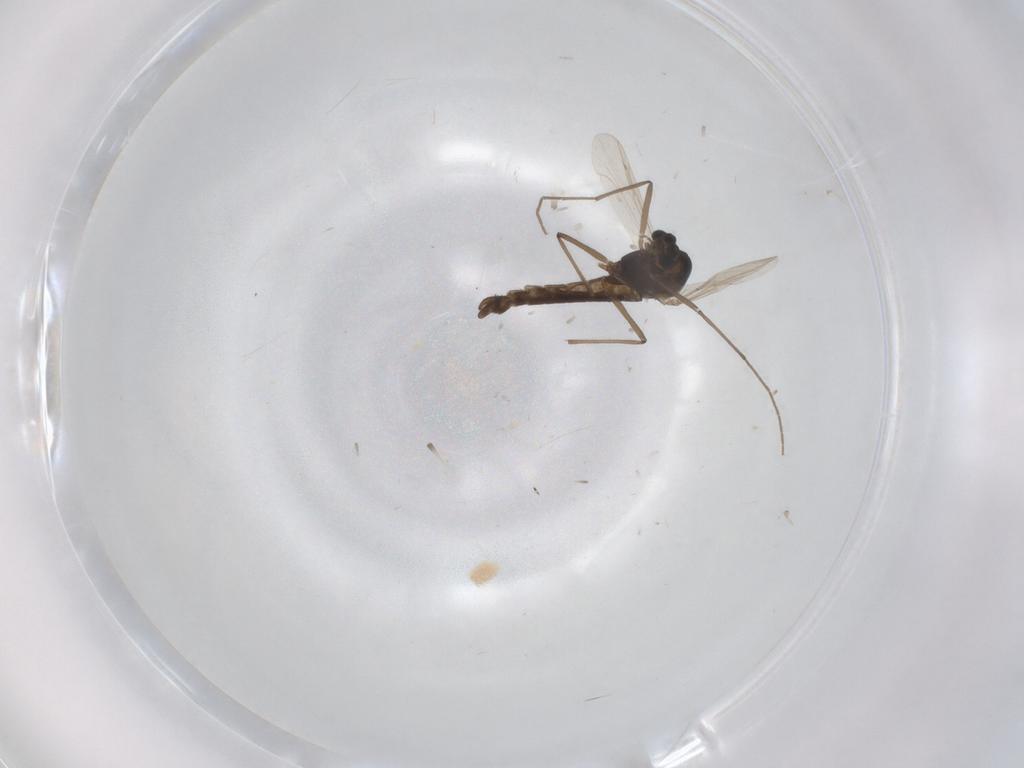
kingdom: Animalia
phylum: Arthropoda
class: Insecta
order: Diptera
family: Chironomidae
